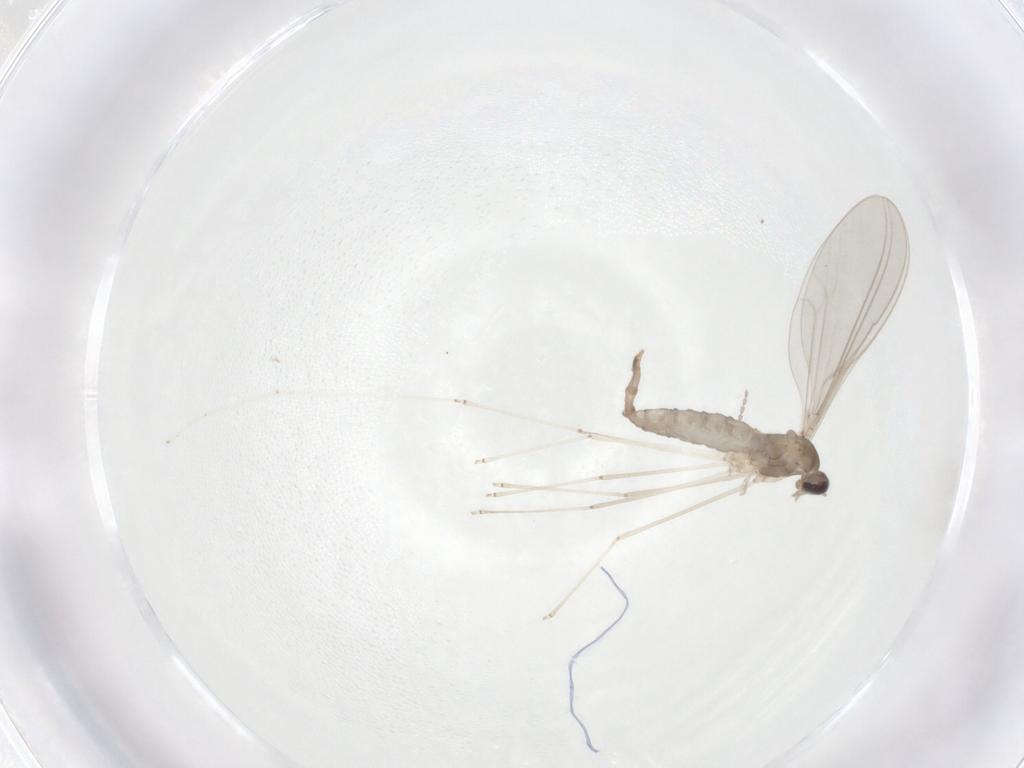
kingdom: Animalia
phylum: Arthropoda
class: Insecta
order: Diptera
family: Cecidomyiidae
